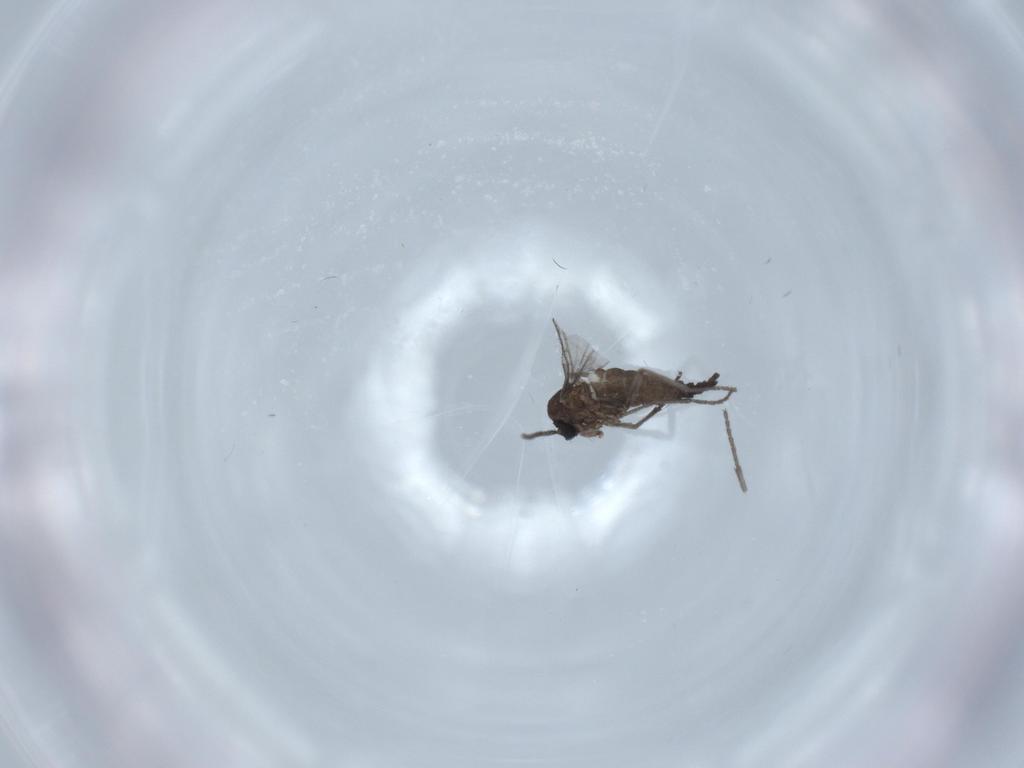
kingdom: Animalia
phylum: Arthropoda
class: Insecta
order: Diptera
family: Sciaridae
